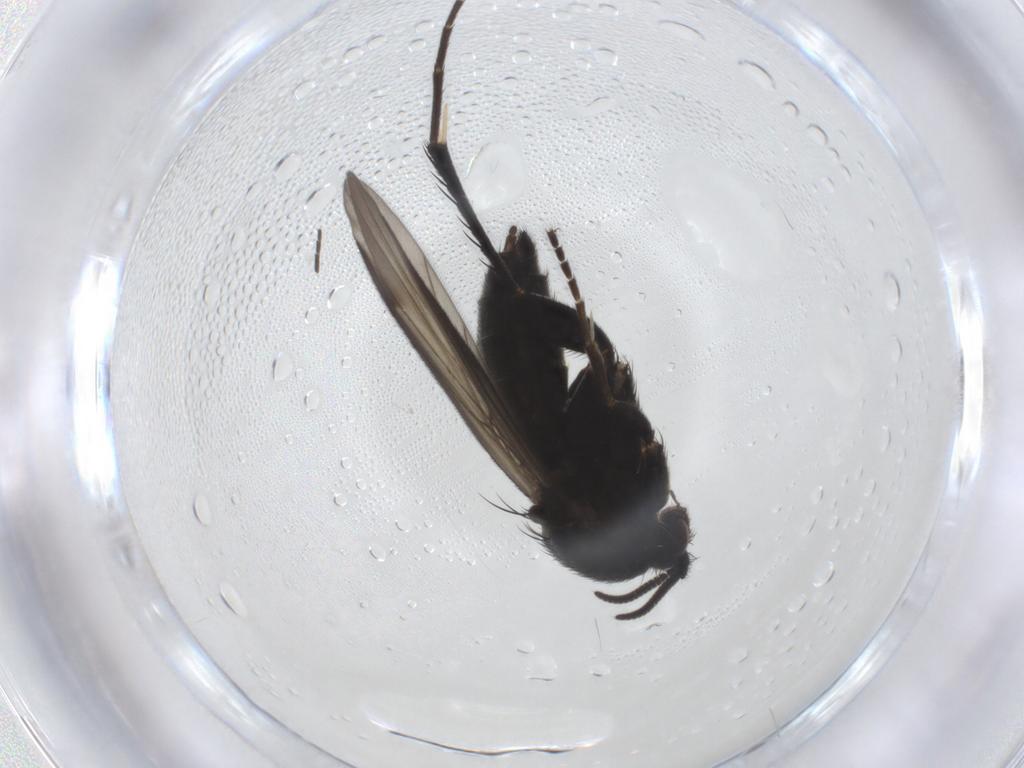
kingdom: Animalia
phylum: Arthropoda
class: Insecta
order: Diptera
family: Mycetophilidae
